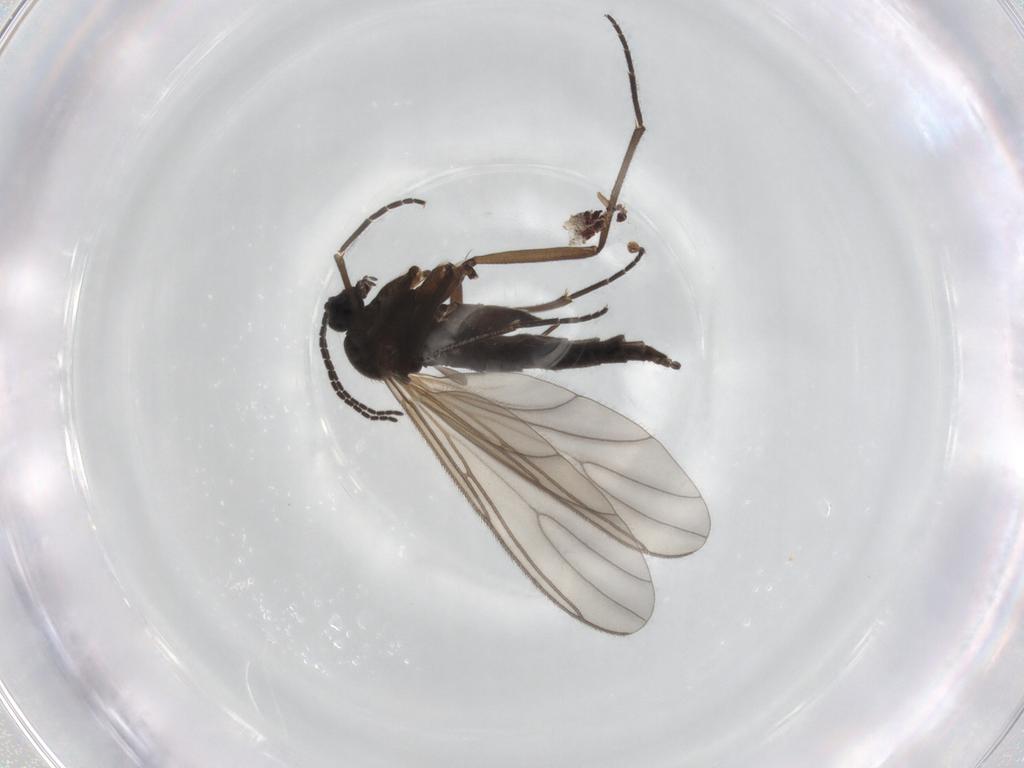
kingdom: Animalia
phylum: Arthropoda
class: Insecta
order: Diptera
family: Sciaridae
